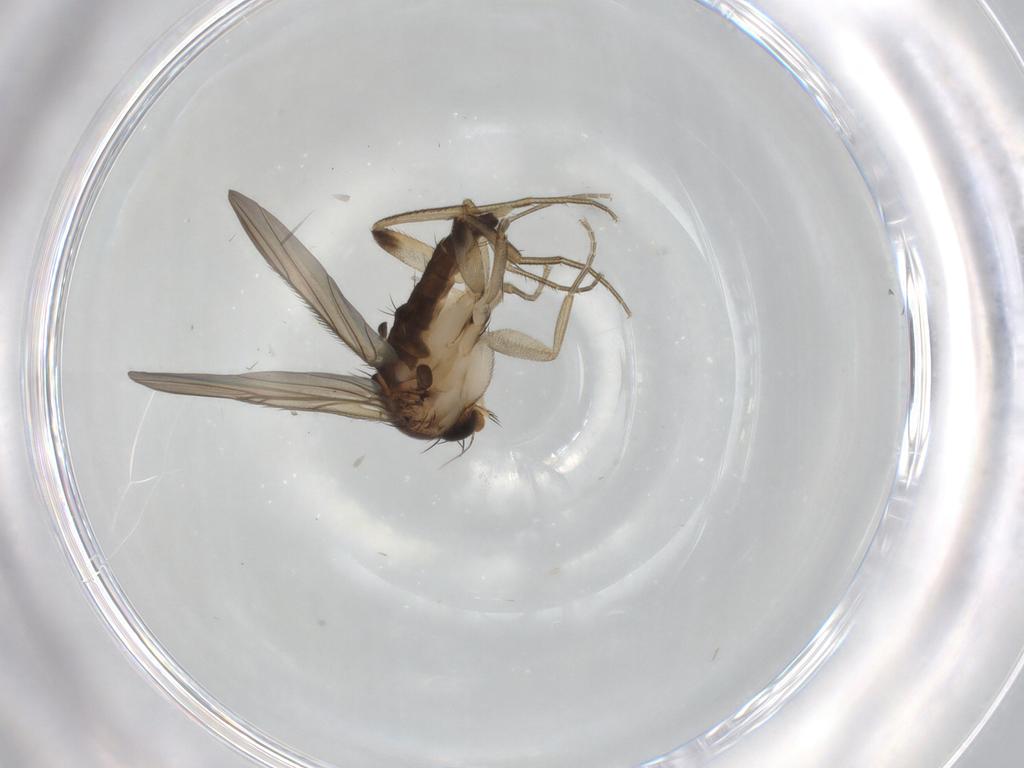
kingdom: Animalia
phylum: Arthropoda
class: Insecta
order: Diptera
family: Phoridae
